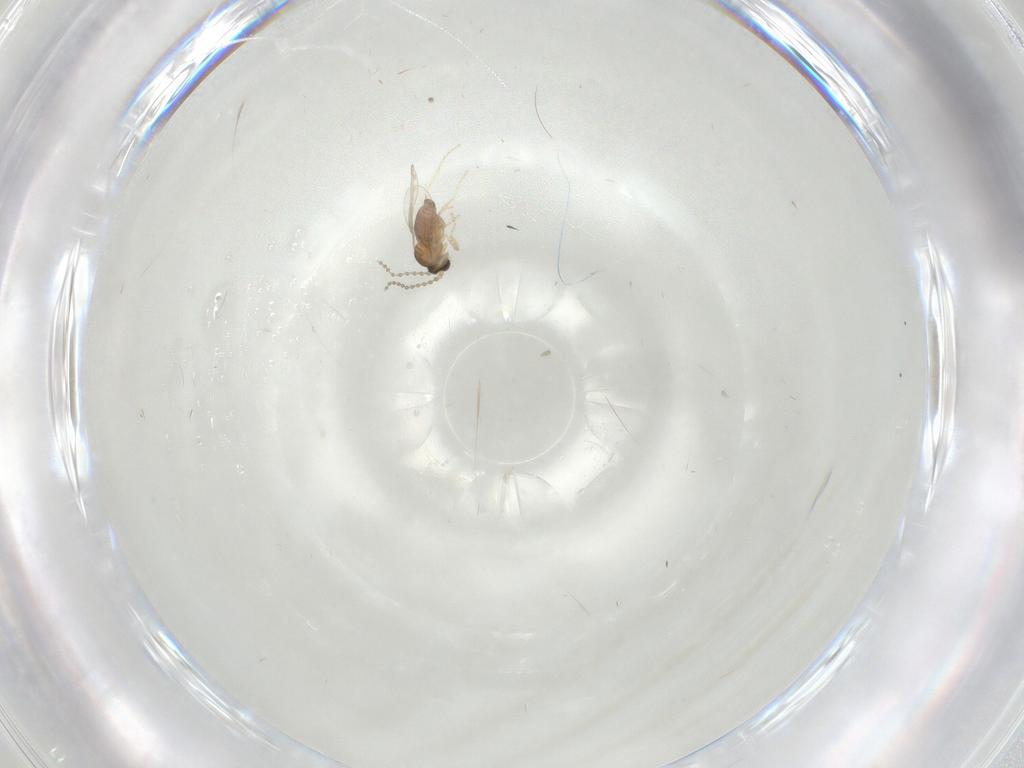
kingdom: Animalia
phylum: Arthropoda
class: Insecta
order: Diptera
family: Cecidomyiidae
